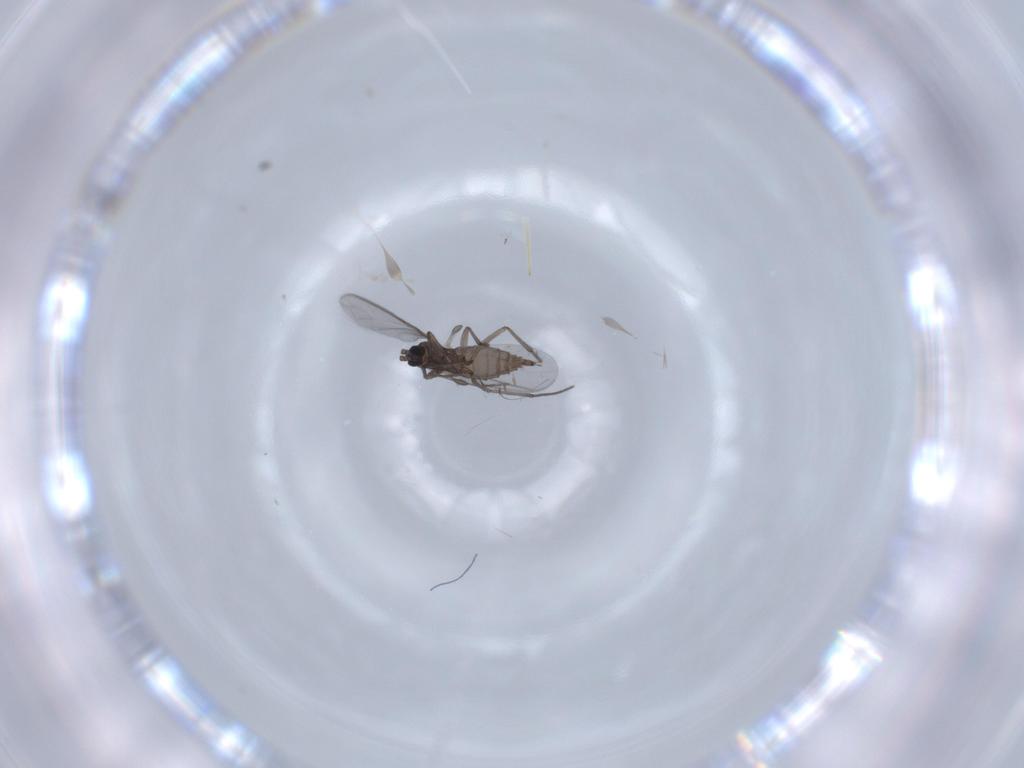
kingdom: Animalia
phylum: Arthropoda
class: Insecta
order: Diptera
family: Sciaridae
